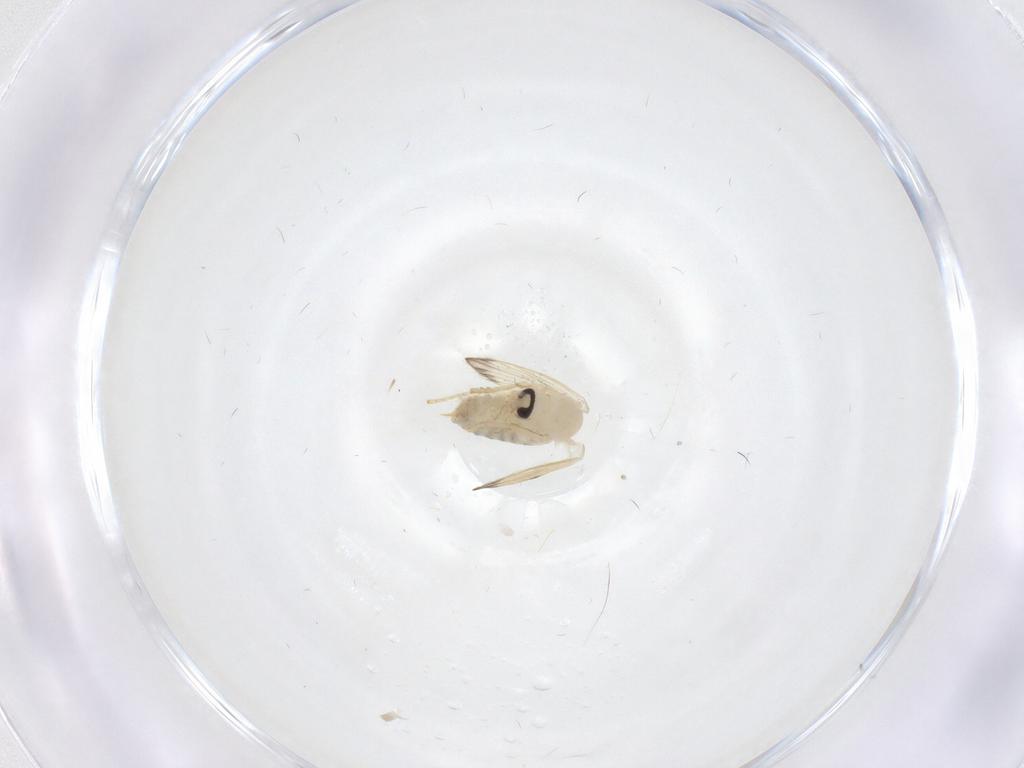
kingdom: Animalia
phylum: Arthropoda
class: Insecta
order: Diptera
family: Psychodidae
